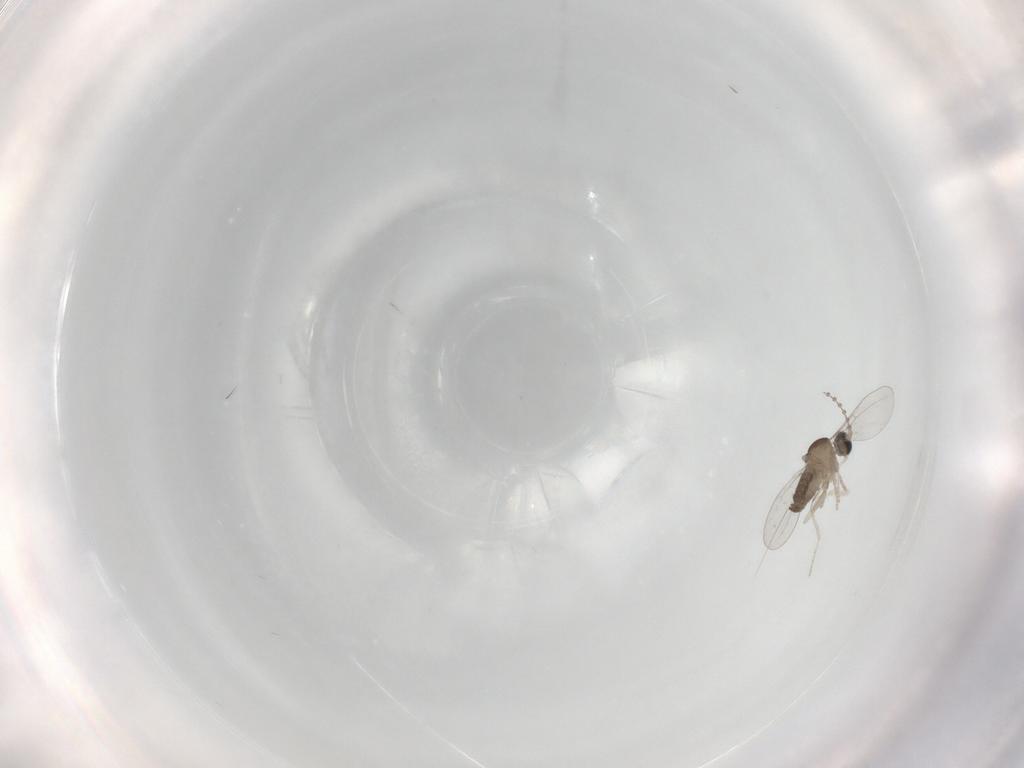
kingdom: Animalia
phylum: Arthropoda
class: Insecta
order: Diptera
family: Cecidomyiidae
